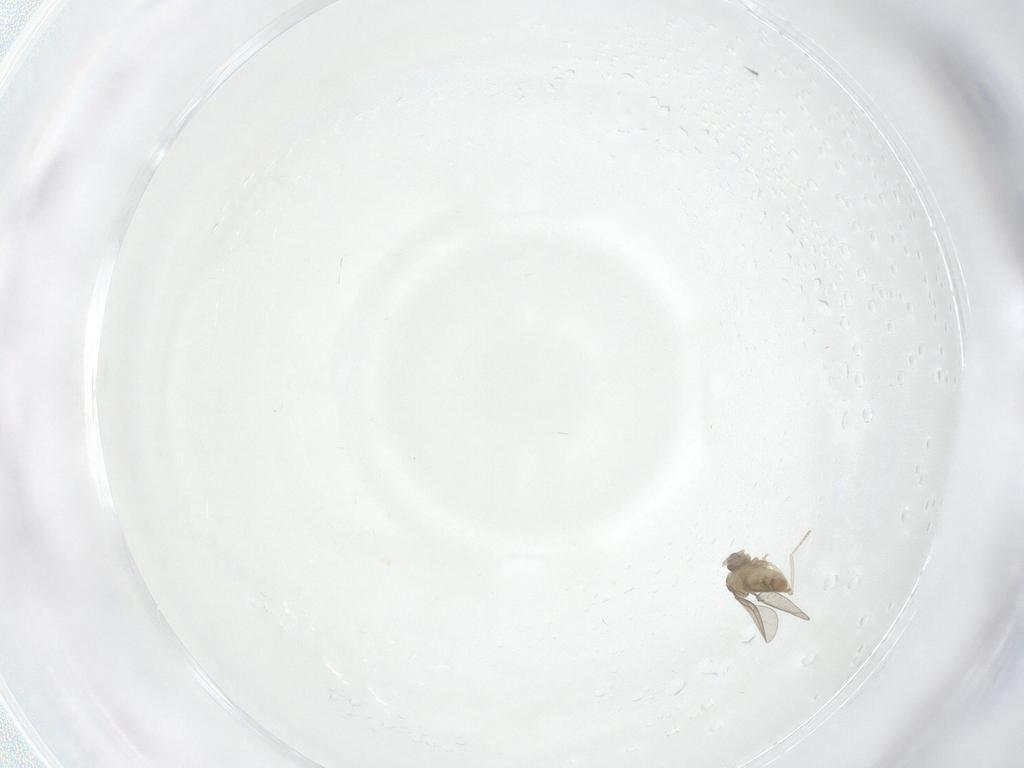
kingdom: Animalia
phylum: Arthropoda
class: Insecta
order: Diptera
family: Cecidomyiidae
